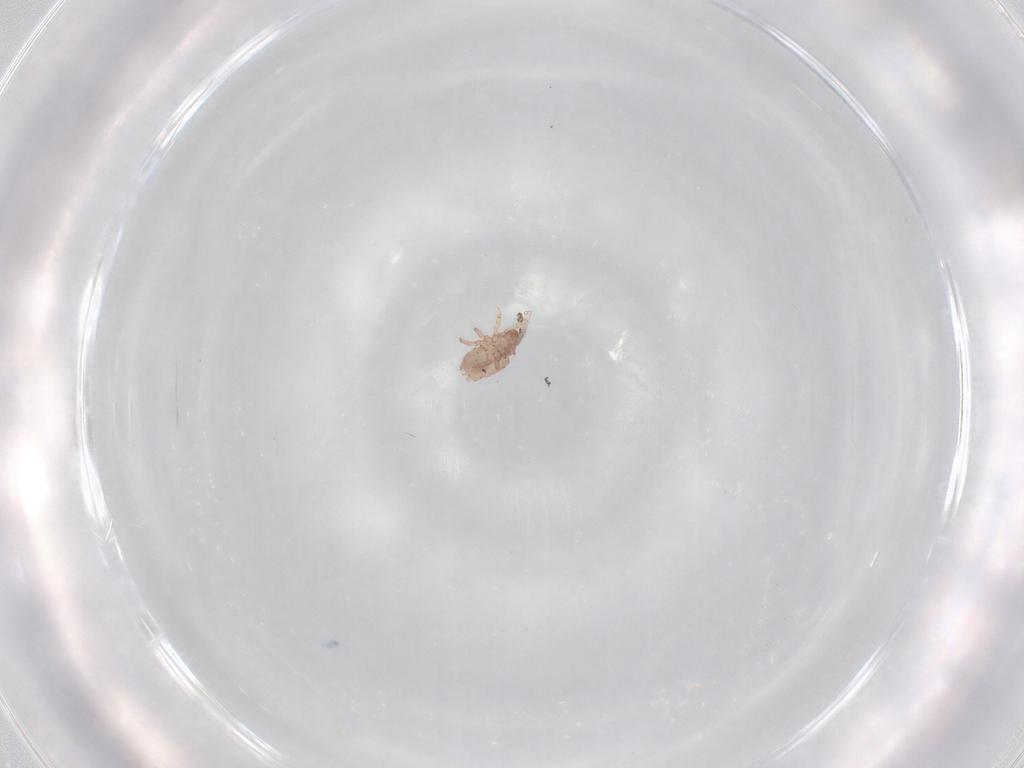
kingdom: Animalia
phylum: Arthropoda
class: Arachnida
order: Sarcoptiformes
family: Crotoniidae
